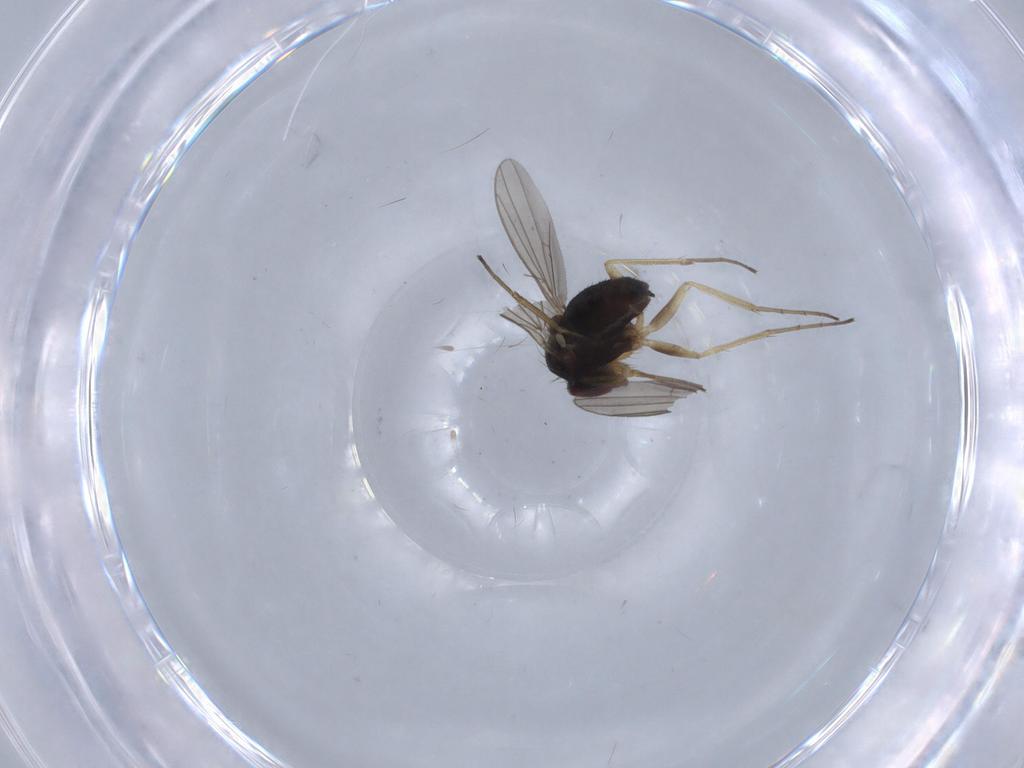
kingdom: Animalia
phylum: Arthropoda
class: Insecta
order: Diptera
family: Dolichopodidae
